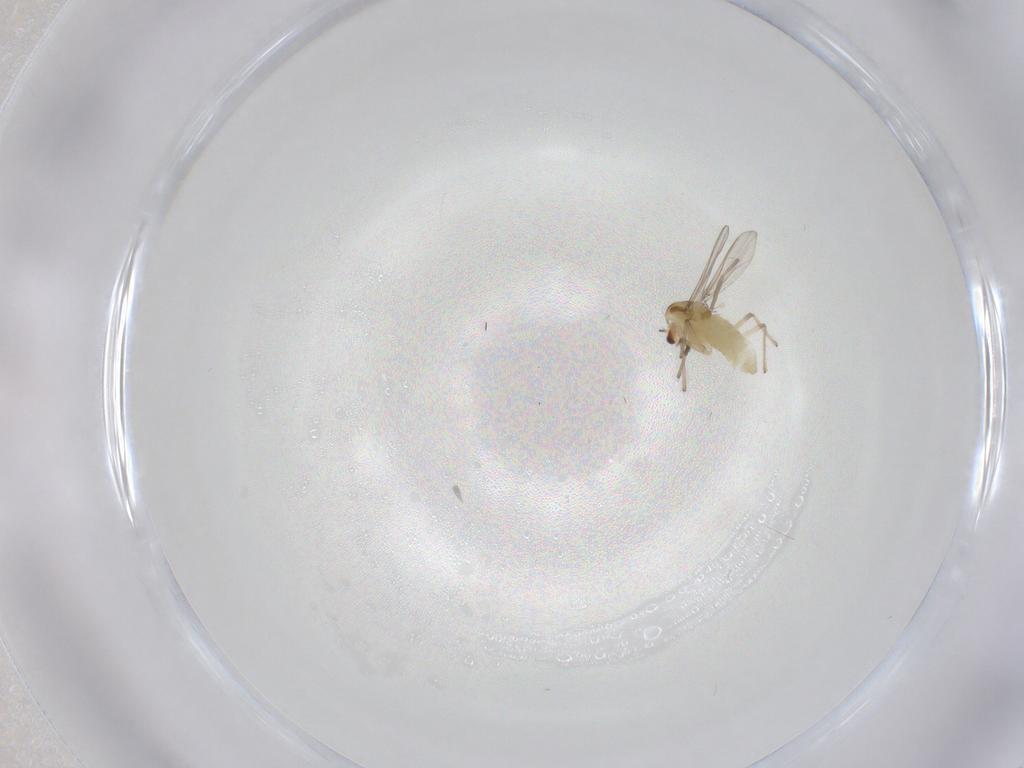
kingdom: Animalia
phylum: Arthropoda
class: Insecta
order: Diptera
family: Chironomidae
